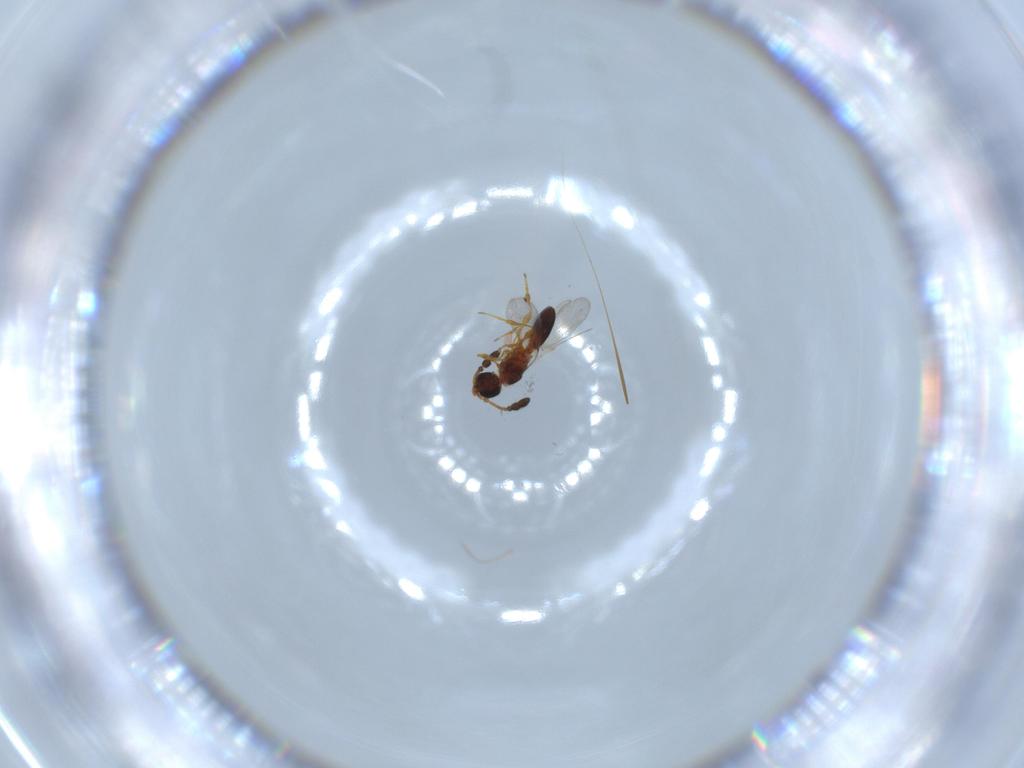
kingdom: Animalia
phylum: Arthropoda
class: Insecta
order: Hymenoptera
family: Diapriidae
